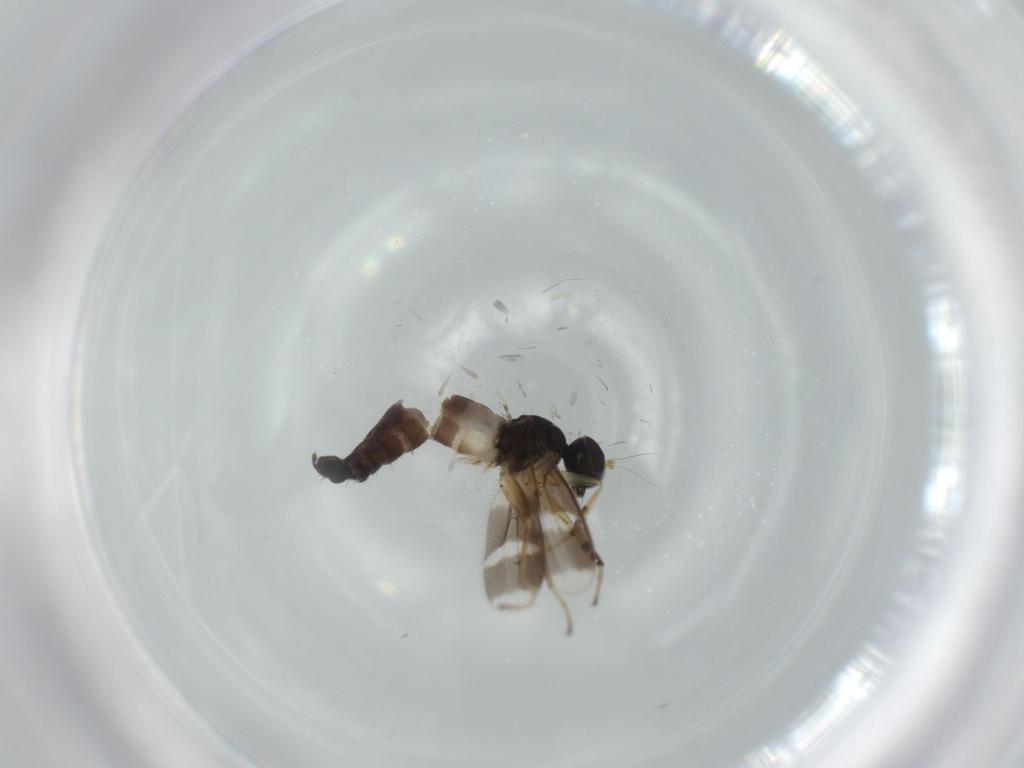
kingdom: Animalia
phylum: Arthropoda
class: Insecta
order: Diptera
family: Hybotidae
